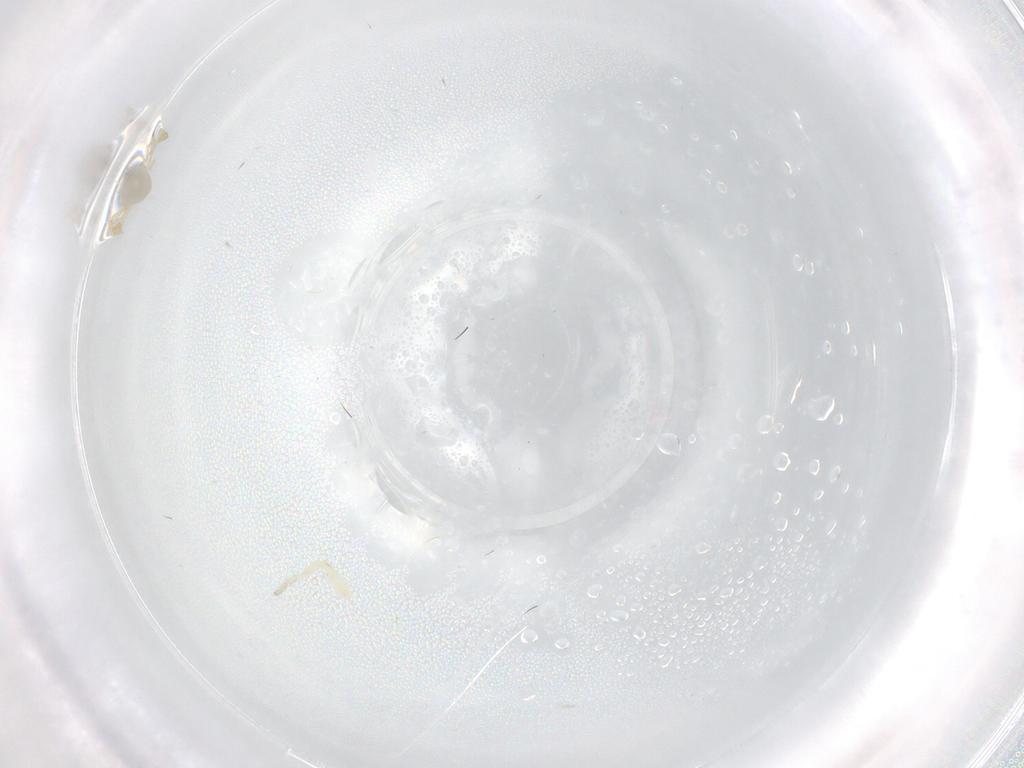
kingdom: Animalia
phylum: Arthropoda
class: Arachnida
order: Araneae
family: Oonopidae
